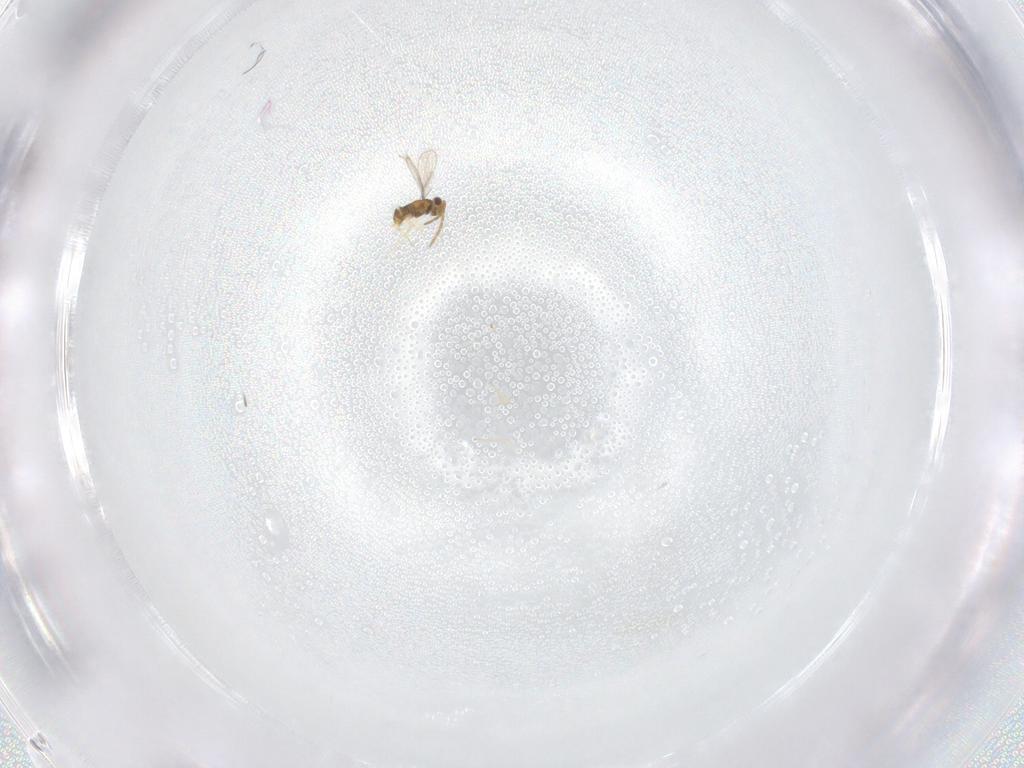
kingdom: Animalia
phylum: Arthropoda
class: Insecta
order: Hymenoptera
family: Aphelinidae
